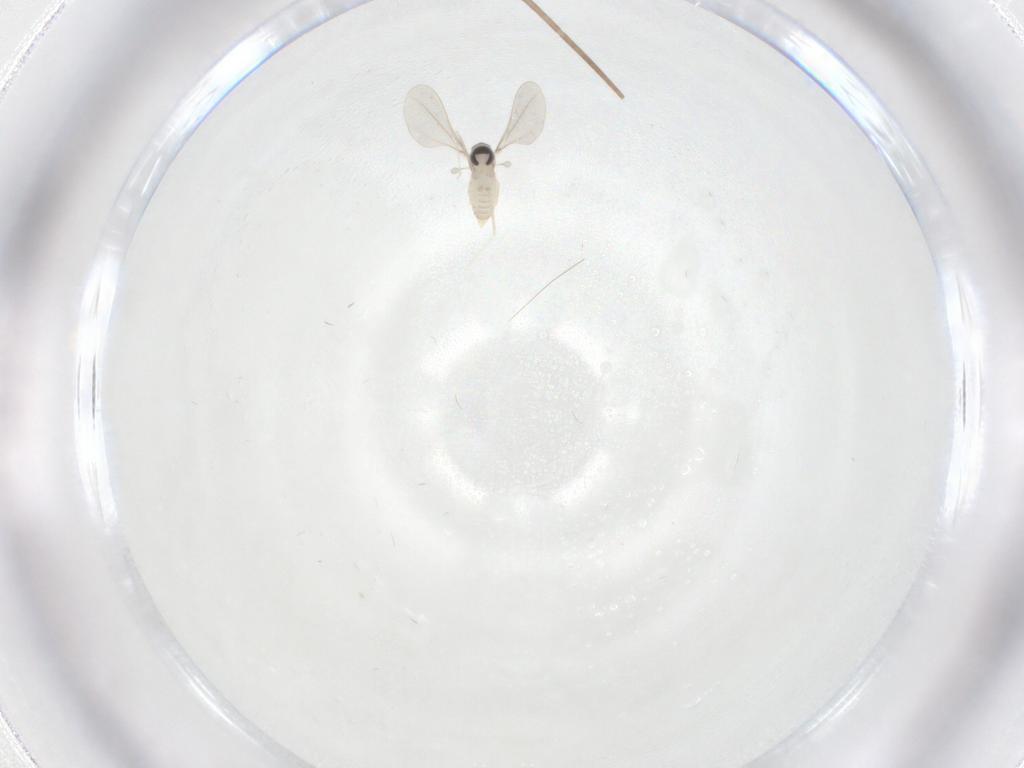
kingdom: Animalia
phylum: Arthropoda
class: Insecta
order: Diptera
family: Cecidomyiidae
